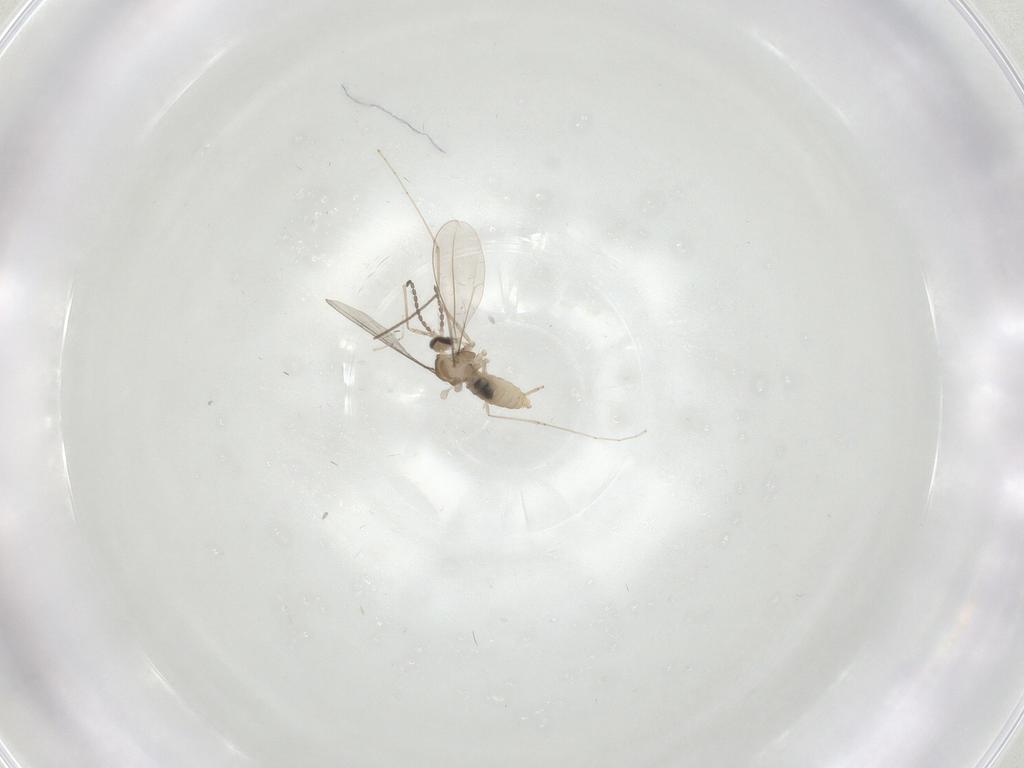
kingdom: Animalia
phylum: Arthropoda
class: Insecta
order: Diptera
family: Cecidomyiidae
